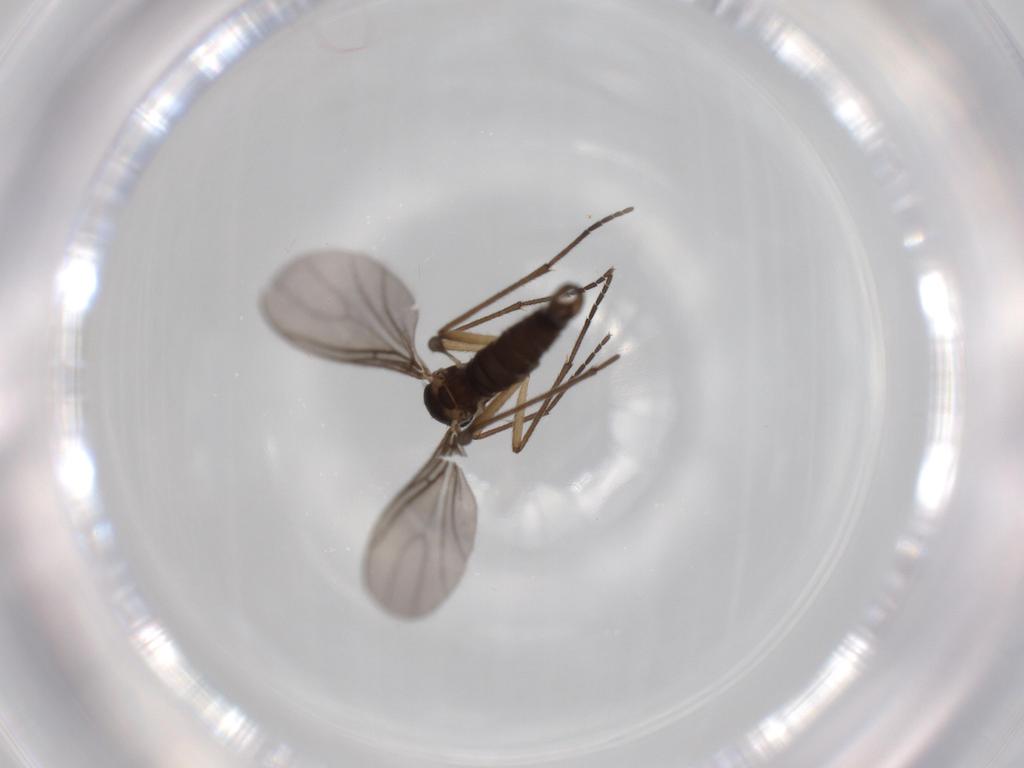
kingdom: Animalia
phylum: Arthropoda
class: Insecta
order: Diptera
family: Sciaridae
